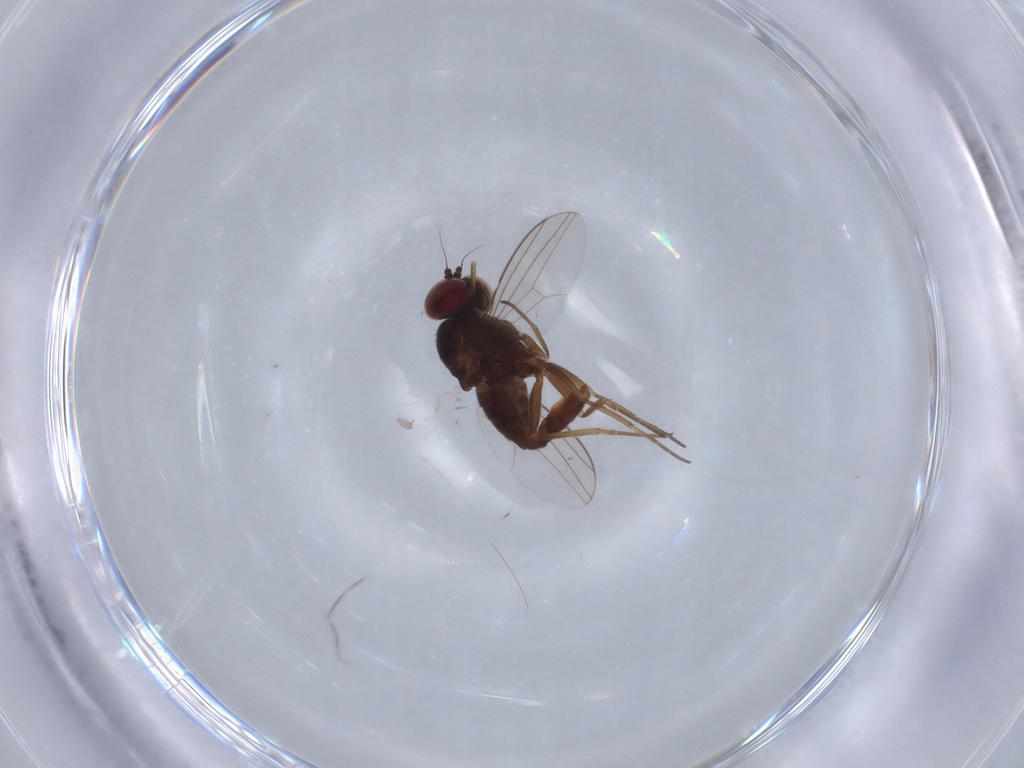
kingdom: Animalia
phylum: Arthropoda
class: Insecta
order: Diptera
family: Dolichopodidae
